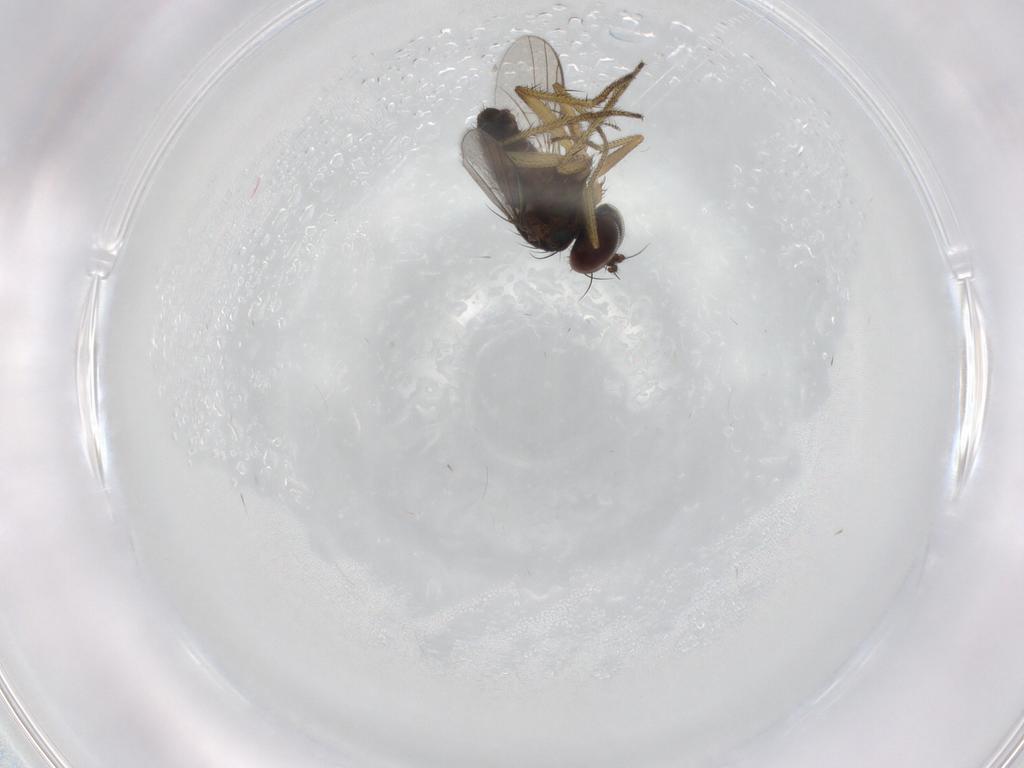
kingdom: Animalia
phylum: Arthropoda
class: Insecta
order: Diptera
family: Chironomidae
